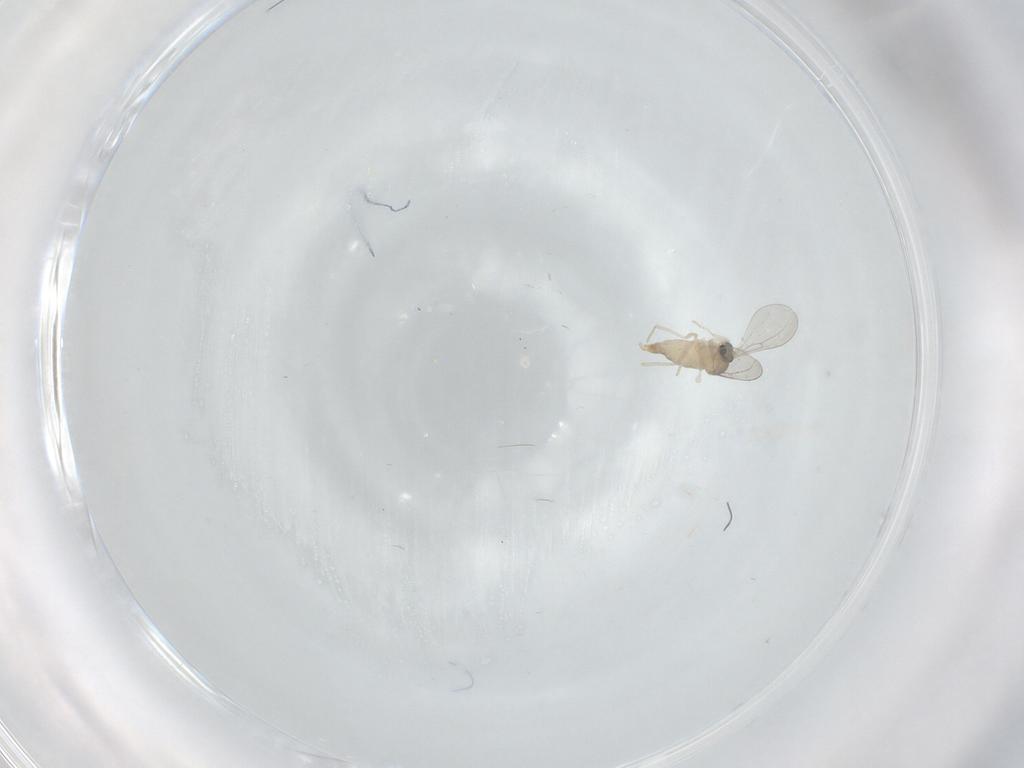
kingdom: Animalia
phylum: Arthropoda
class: Insecta
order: Diptera
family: Cecidomyiidae
